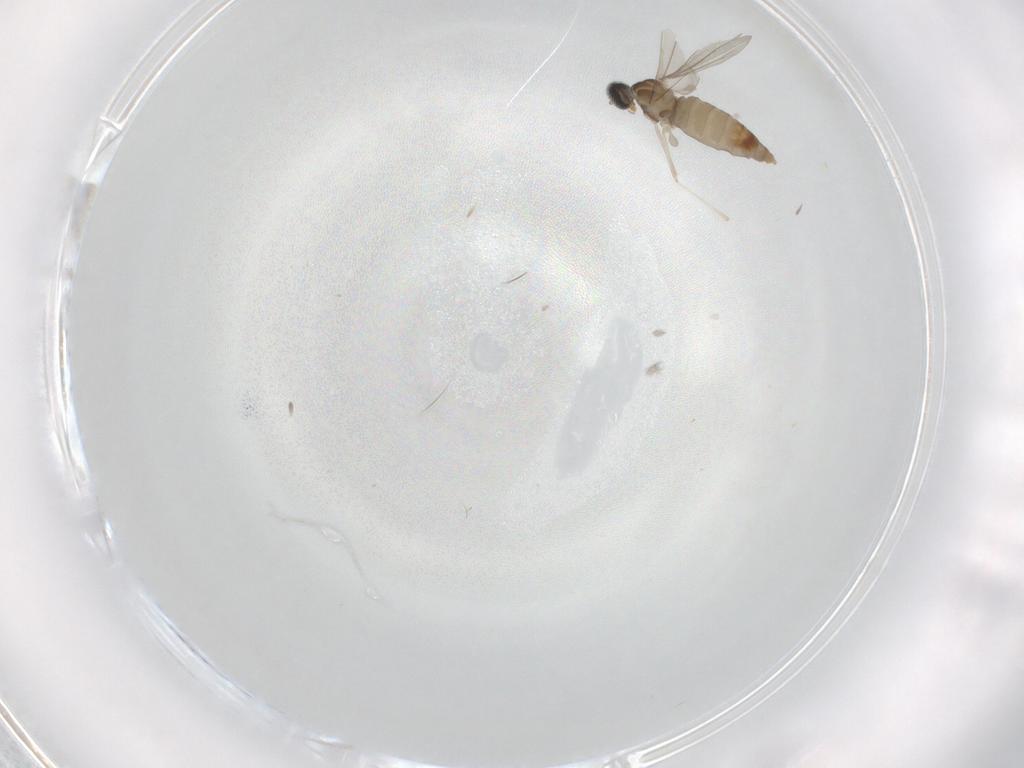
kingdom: Animalia
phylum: Arthropoda
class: Insecta
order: Diptera
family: Cecidomyiidae
